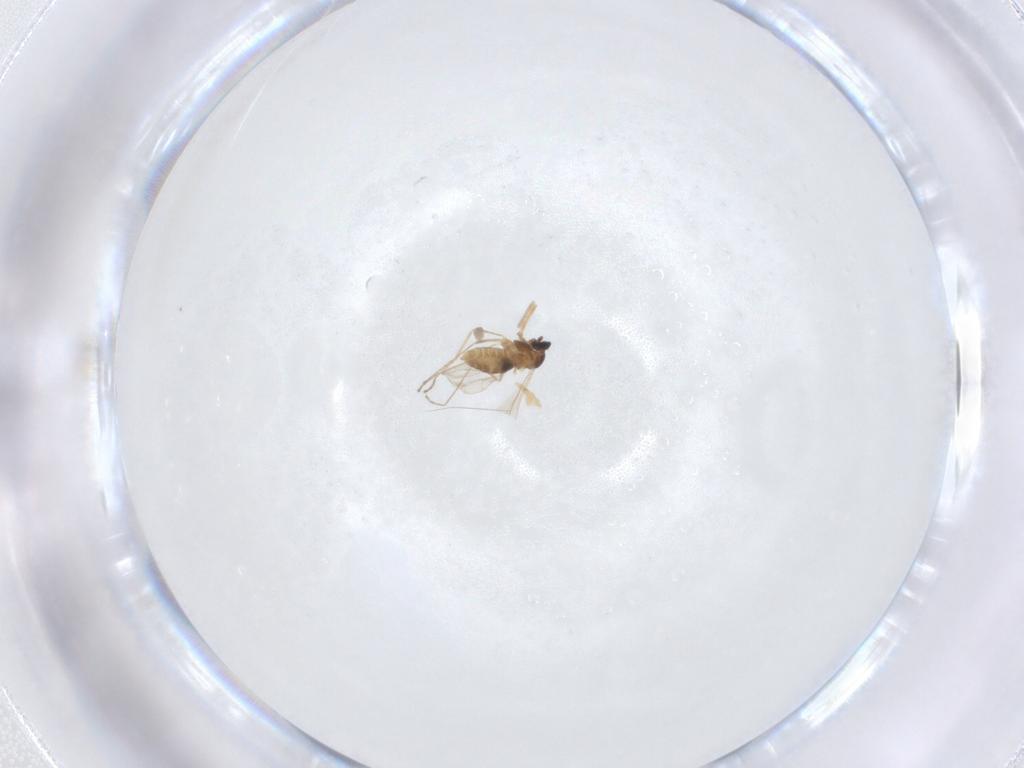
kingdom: Animalia
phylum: Arthropoda
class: Insecta
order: Diptera
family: Cecidomyiidae
